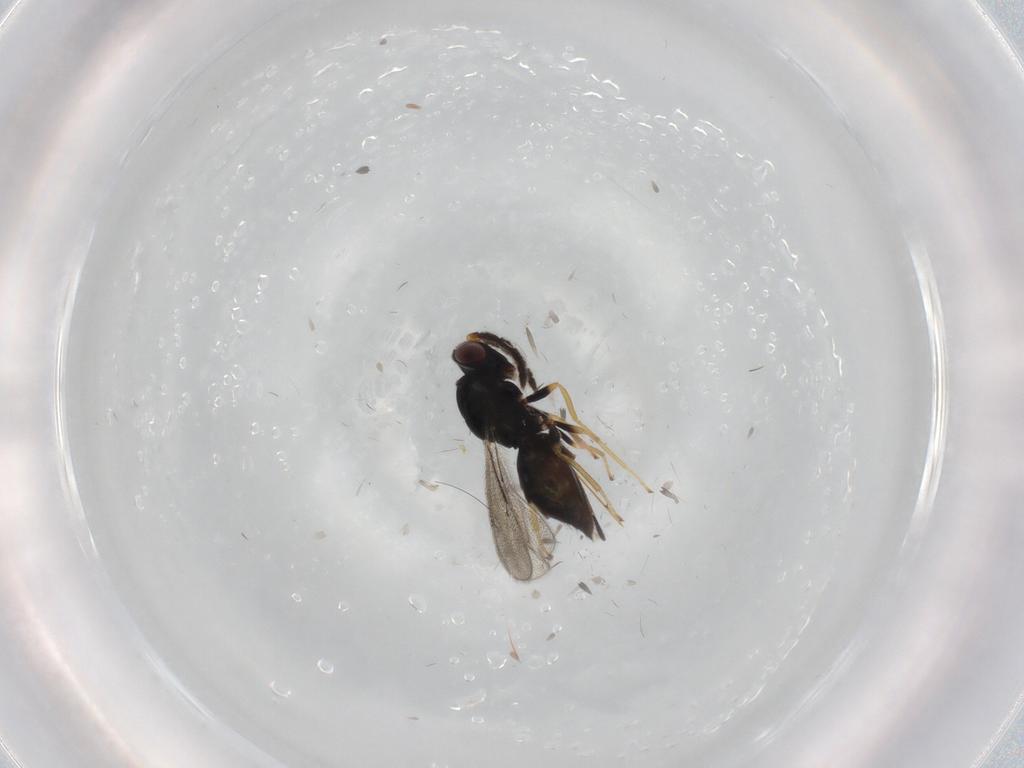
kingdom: Animalia
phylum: Arthropoda
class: Insecta
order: Hymenoptera
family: Eulophidae
